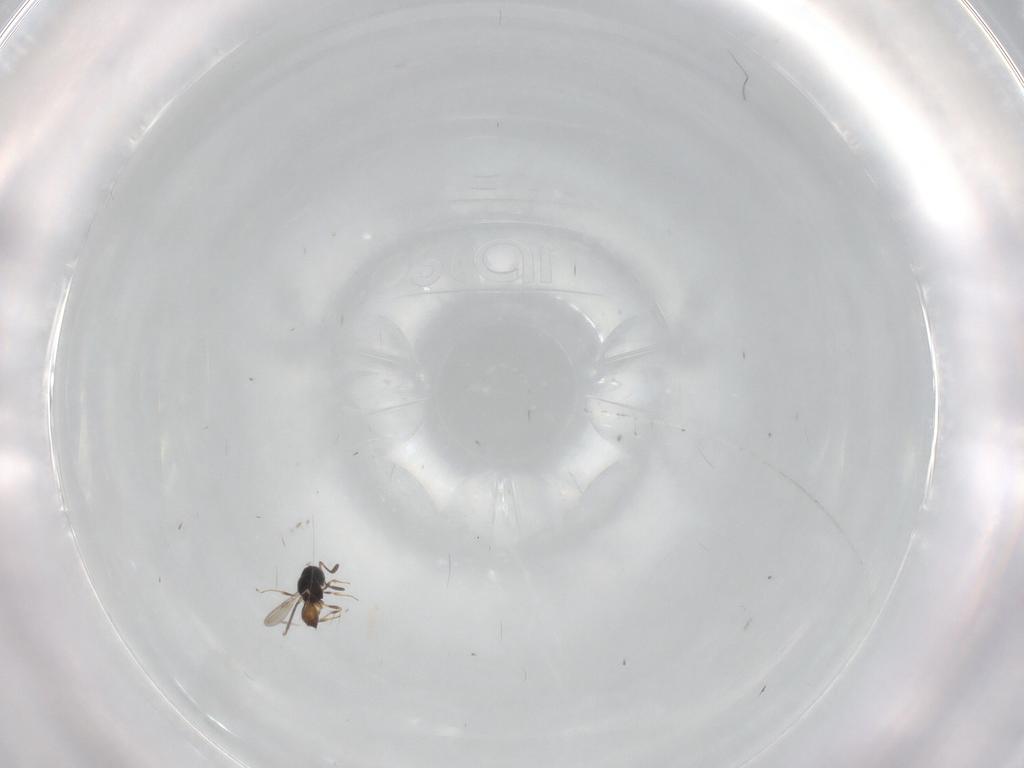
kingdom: Animalia
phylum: Arthropoda
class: Insecta
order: Hymenoptera
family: Scelionidae
